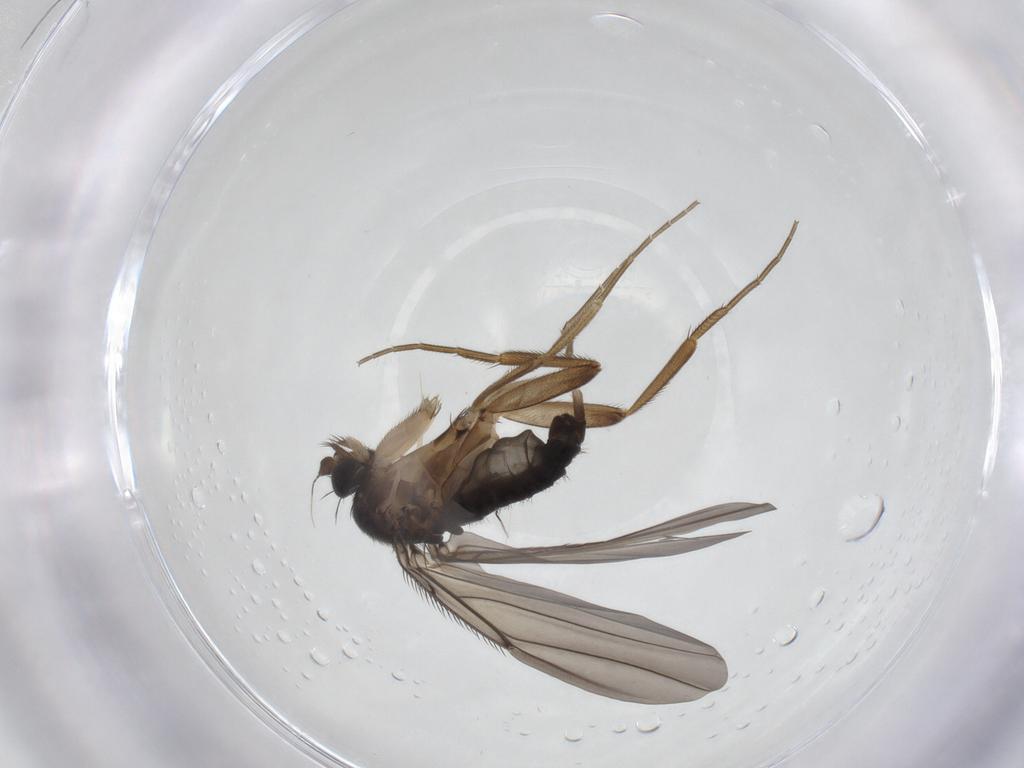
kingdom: Animalia
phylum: Arthropoda
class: Insecta
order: Diptera
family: Phoridae
